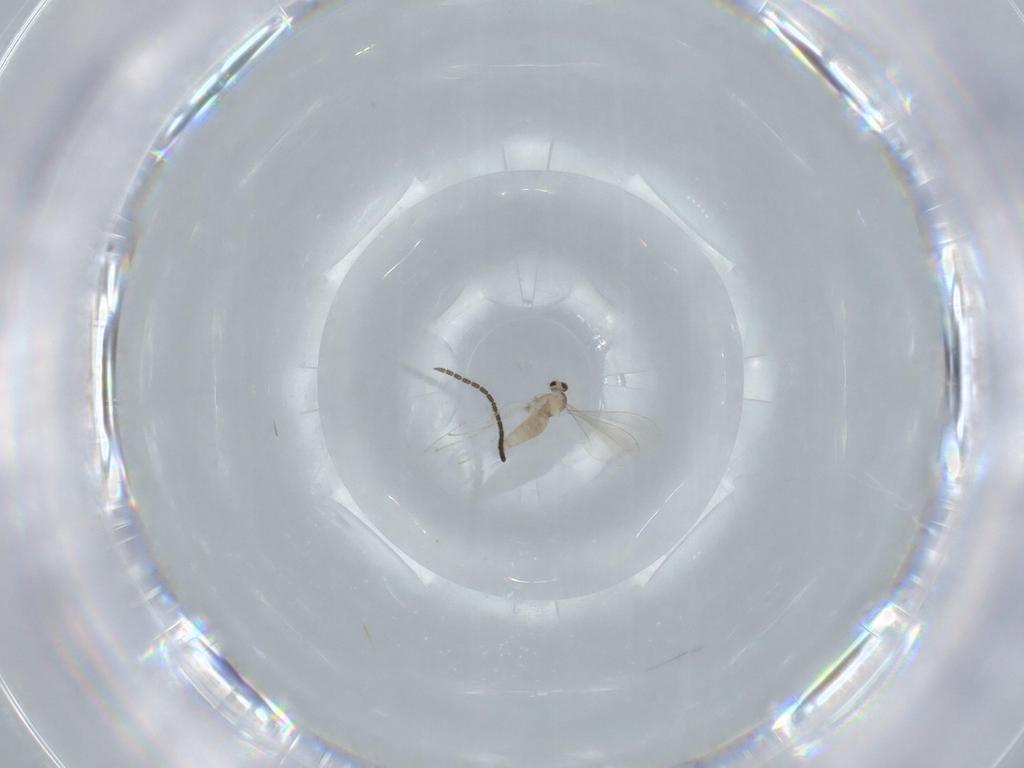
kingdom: Animalia
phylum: Arthropoda
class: Insecta
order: Diptera
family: Cecidomyiidae
